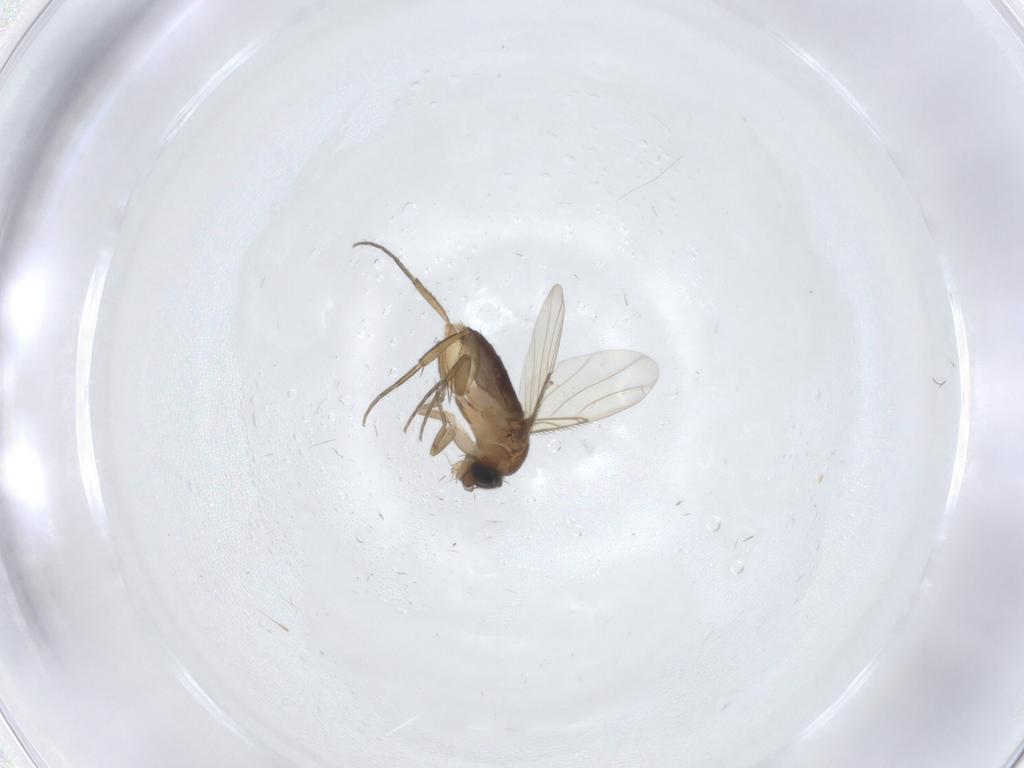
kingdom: Animalia
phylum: Arthropoda
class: Insecta
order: Diptera
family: Phoridae
